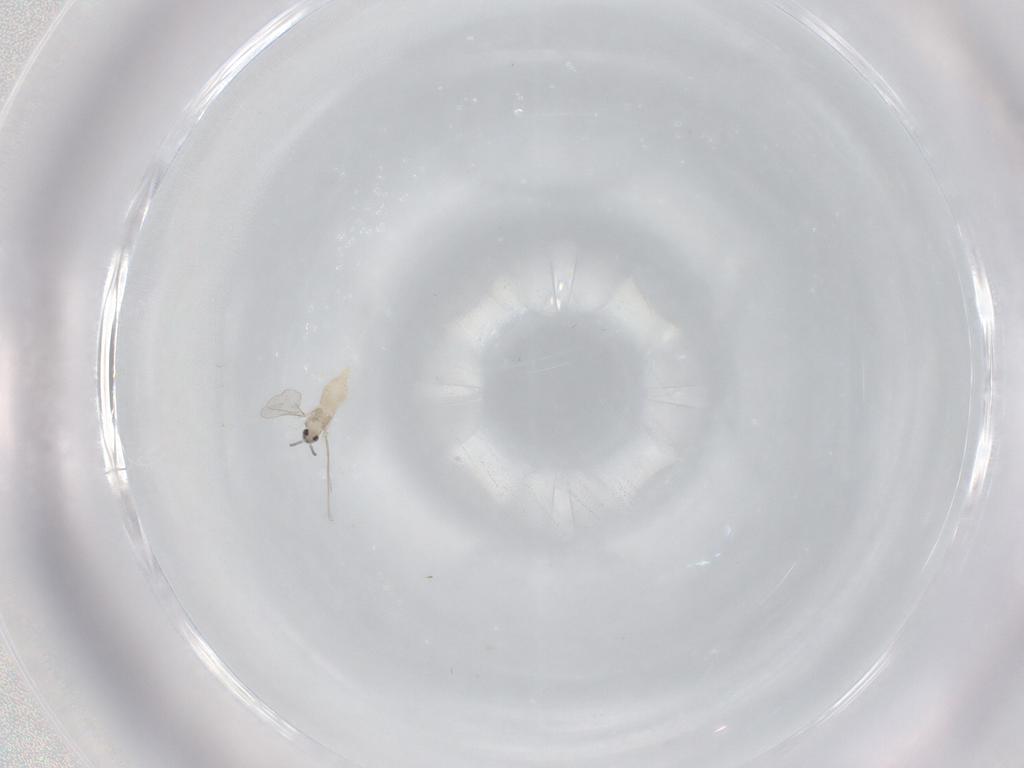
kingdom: Animalia
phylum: Arthropoda
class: Insecta
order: Diptera
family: Cecidomyiidae
